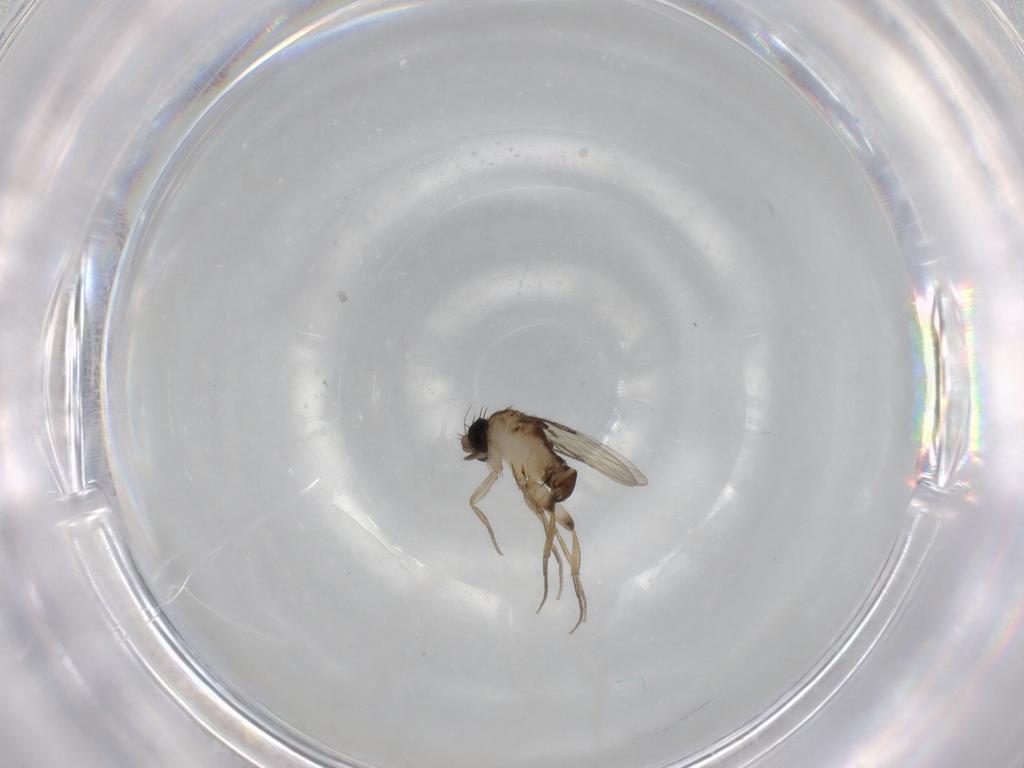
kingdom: Animalia
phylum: Arthropoda
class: Insecta
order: Diptera
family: Phoridae
